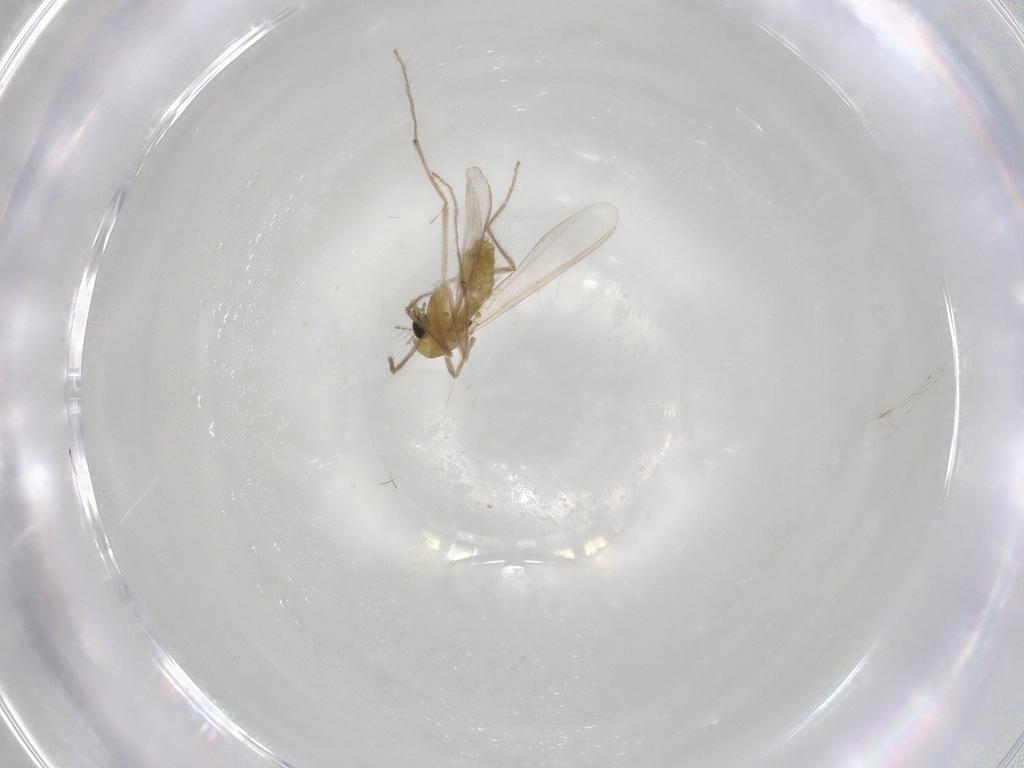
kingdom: Animalia
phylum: Arthropoda
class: Insecta
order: Diptera
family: Chironomidae
